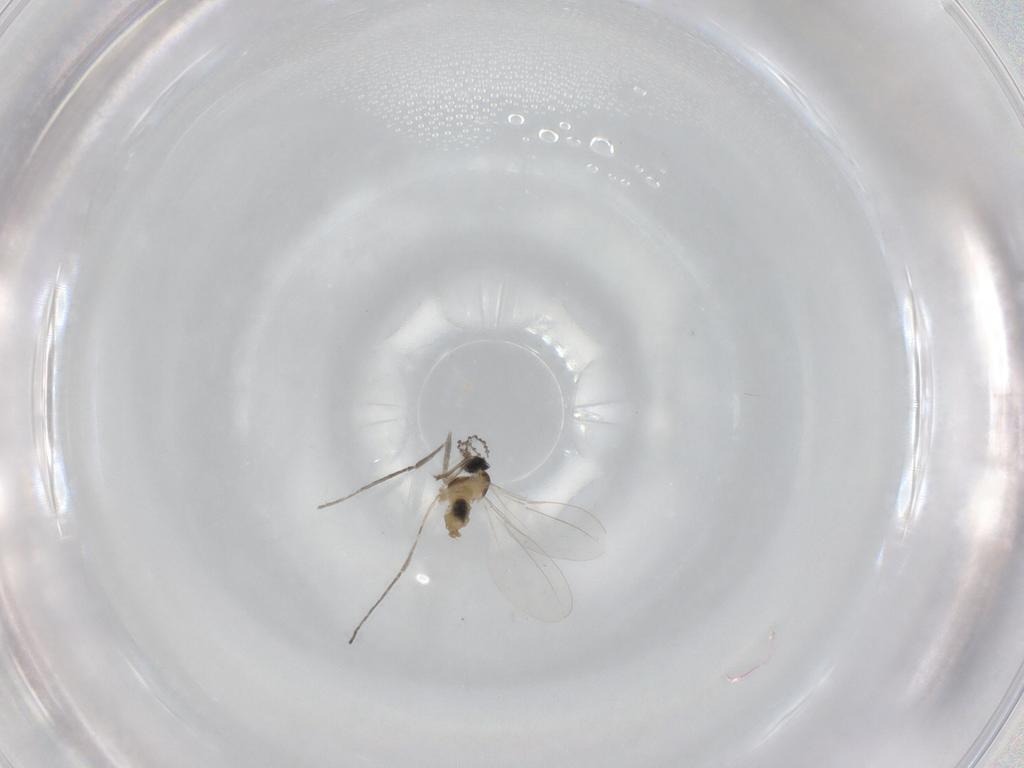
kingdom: Animalia
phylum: Arthropoda
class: Insecta
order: Diptera
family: Cecidomyiidae
